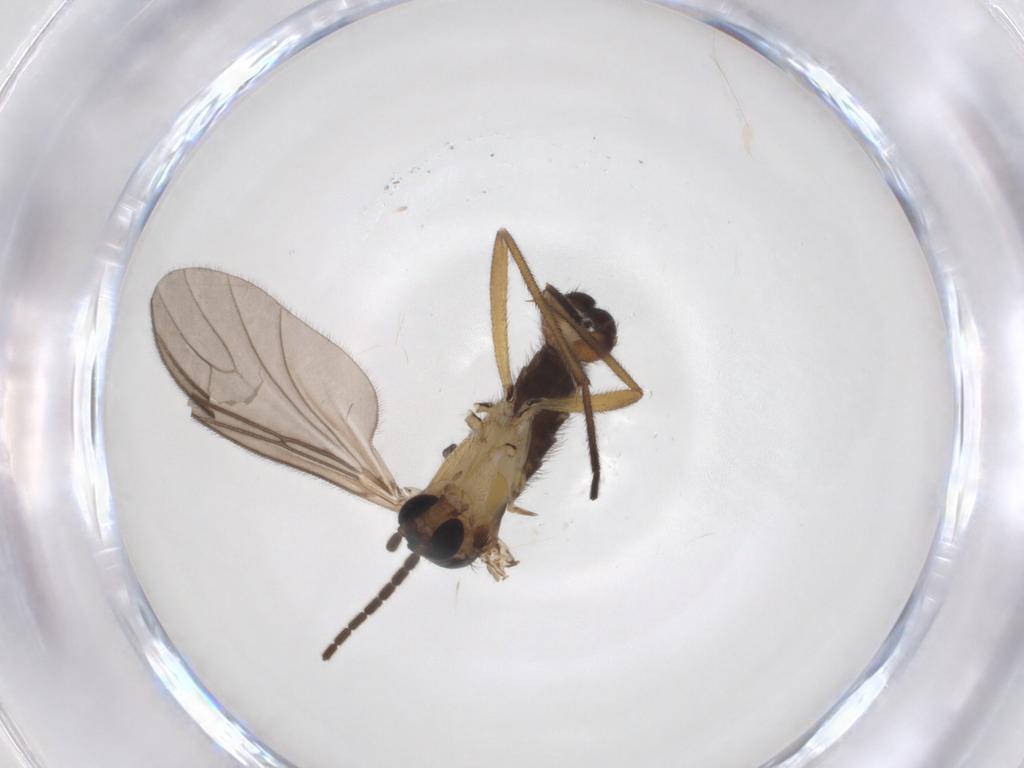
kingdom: Animalia
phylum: Arthropoda
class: Insecta
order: Diptera
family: Sciaridae
